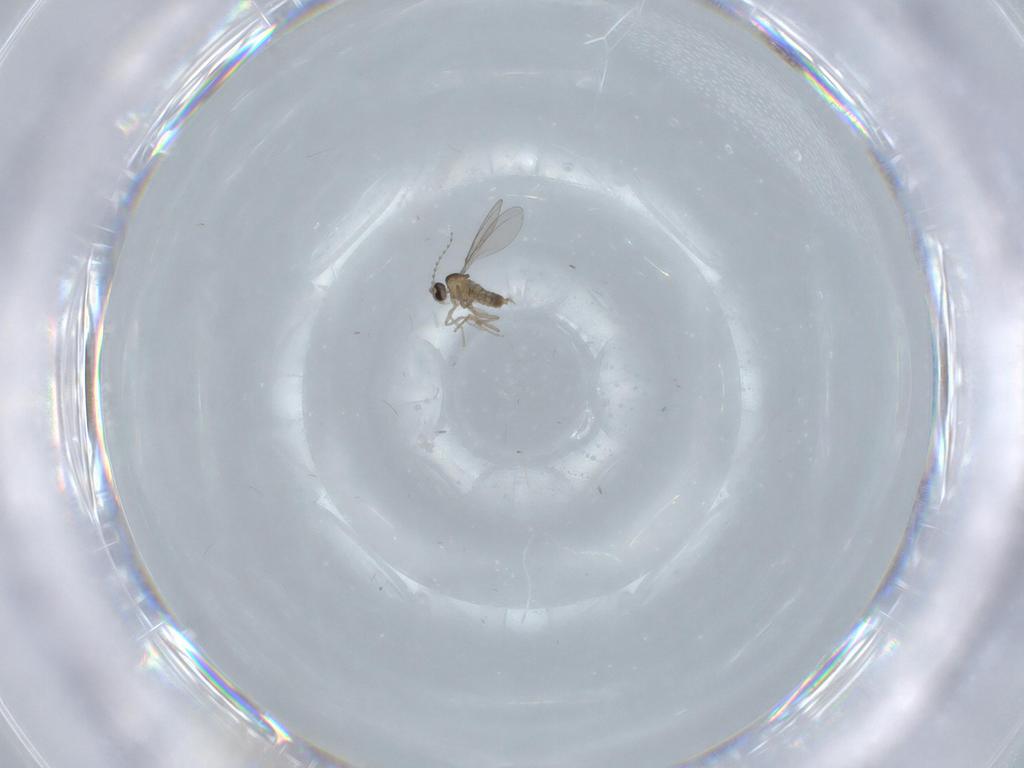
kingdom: Animalia
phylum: Arthropoda
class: Insecta
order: Diptera
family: Cecidomyiidae
